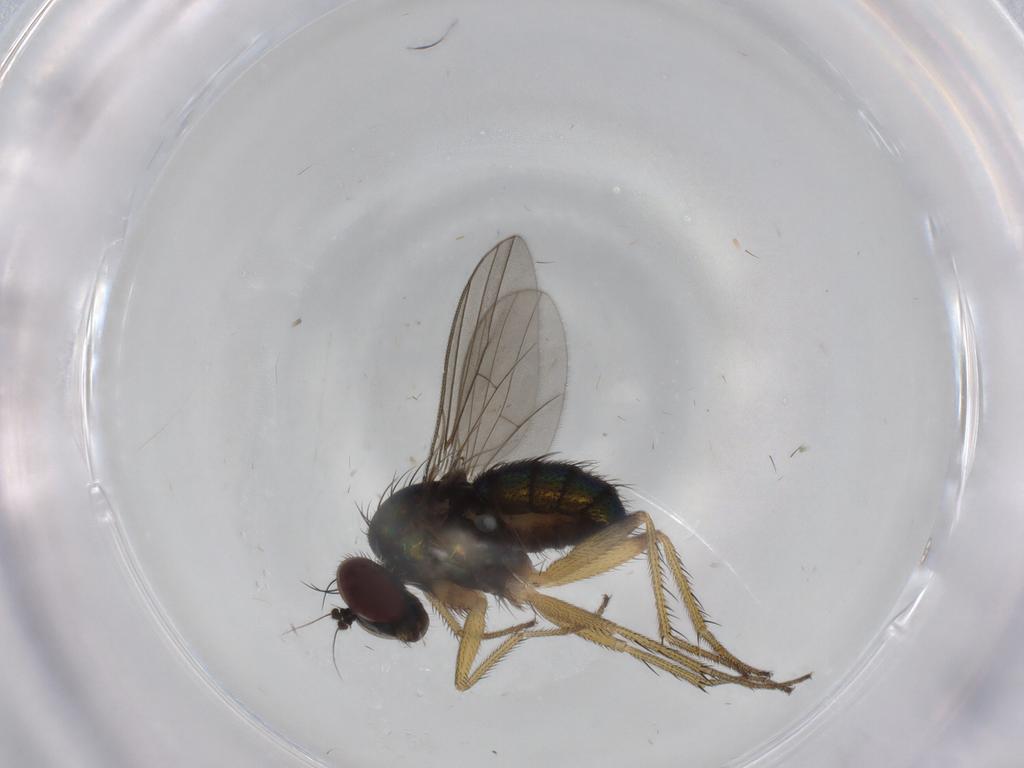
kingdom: Animalia
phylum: Arthropoda
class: Insecta
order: Diptera
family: Dolichopodidae
